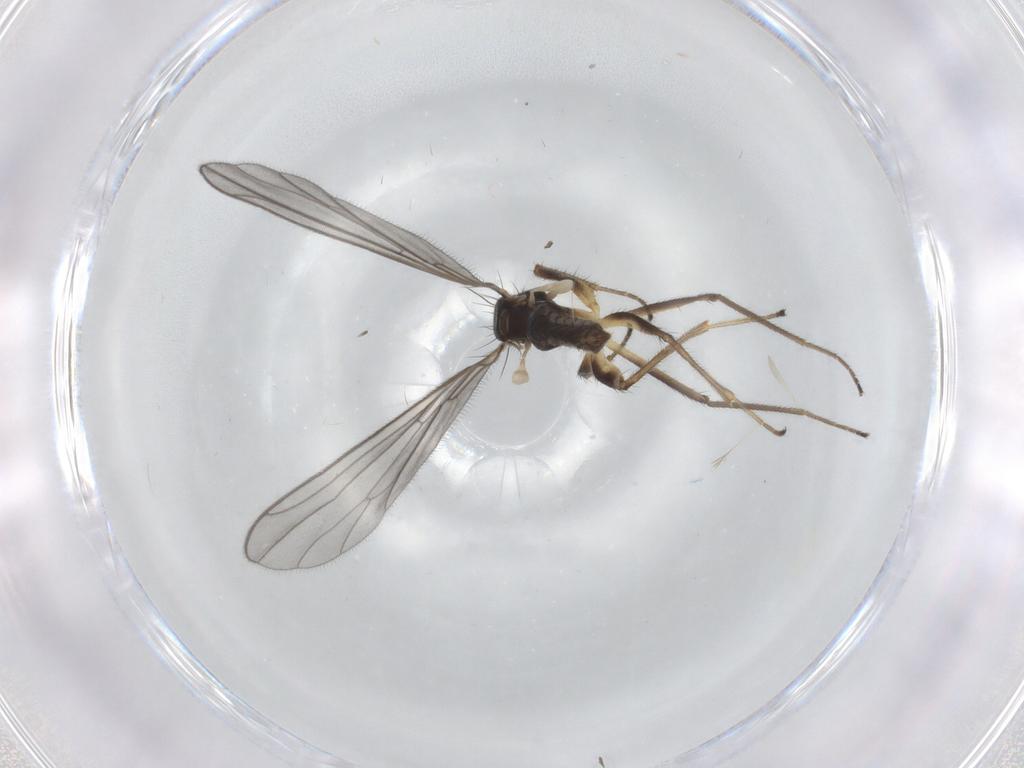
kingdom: Animalia
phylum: Arthropoda
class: Insecta
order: Diptera
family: Empididae
